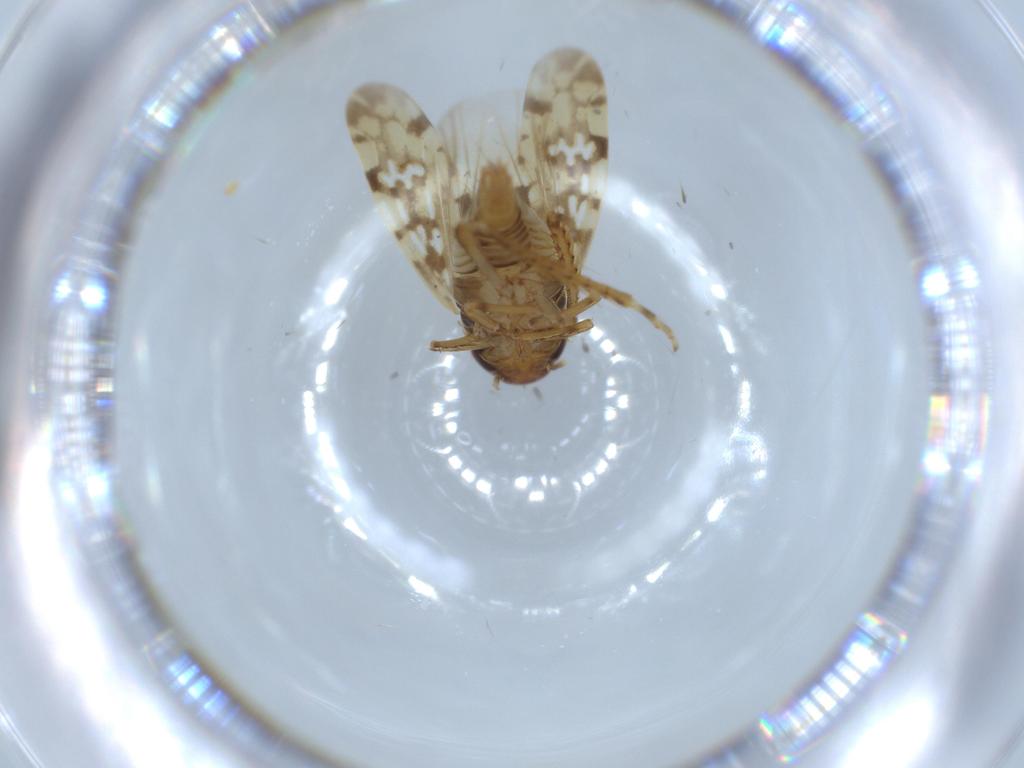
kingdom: Animalia
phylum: Arthropoda
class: Insecta
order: Hemiptera
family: Cicadellidae
